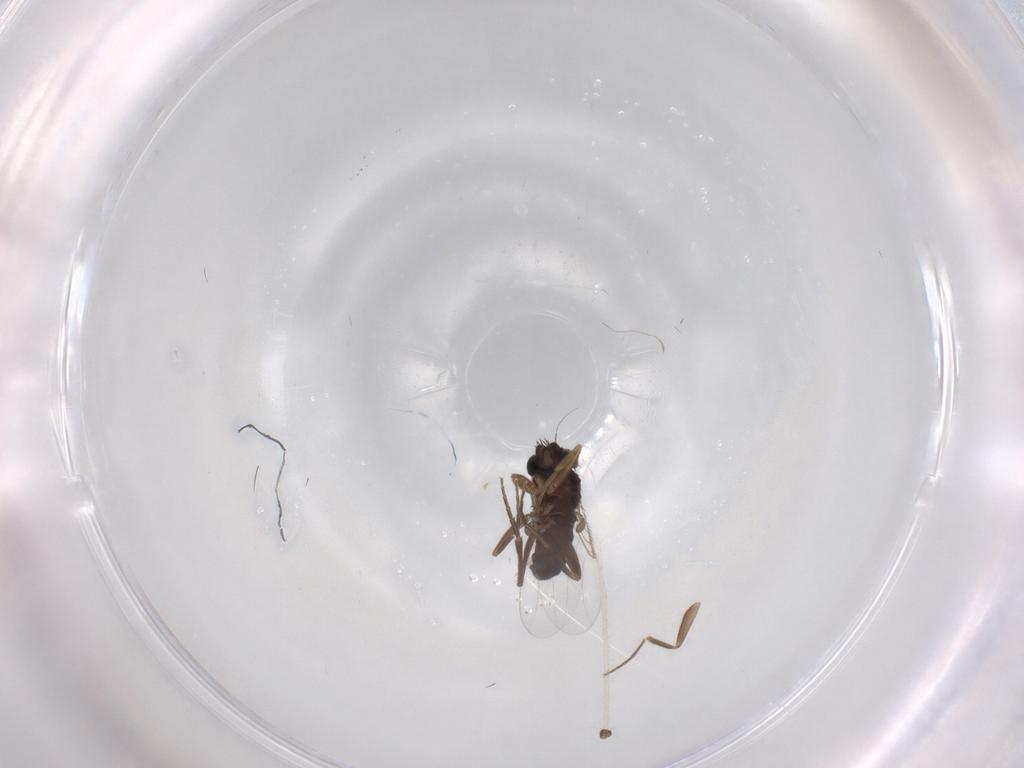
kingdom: Animalia
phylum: Arthropoda
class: Insecta
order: Diptera
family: Phoridae
